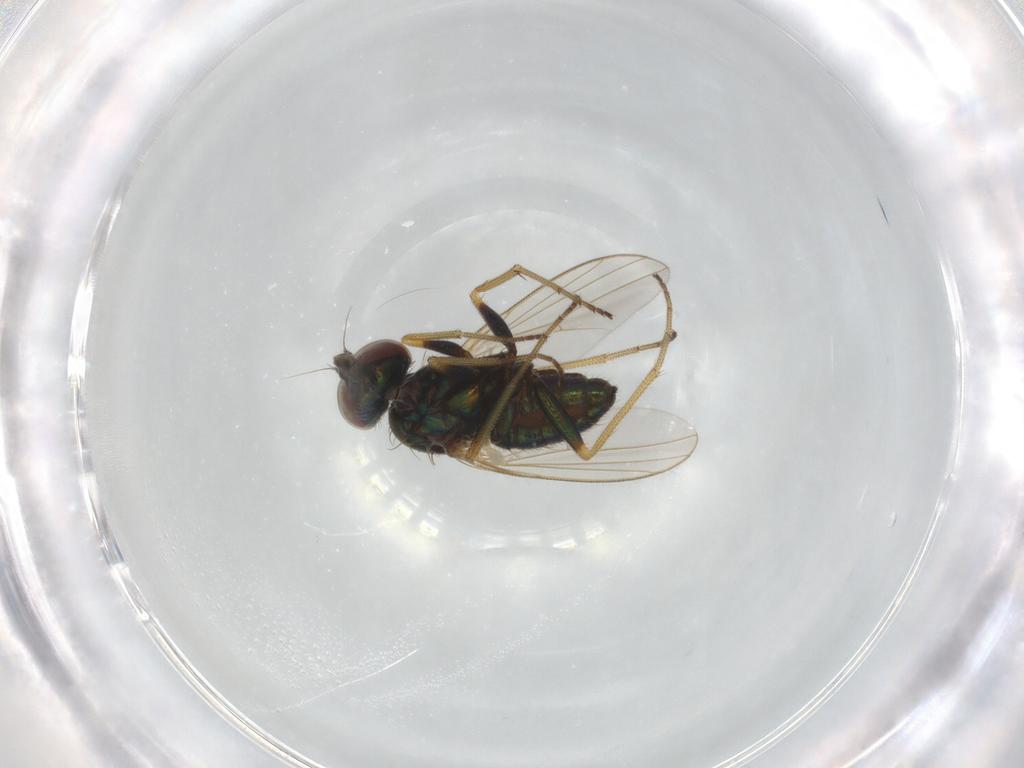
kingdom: Animalia
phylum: Arthropoda
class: Insecta
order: Diptera
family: Dolichopodidae
